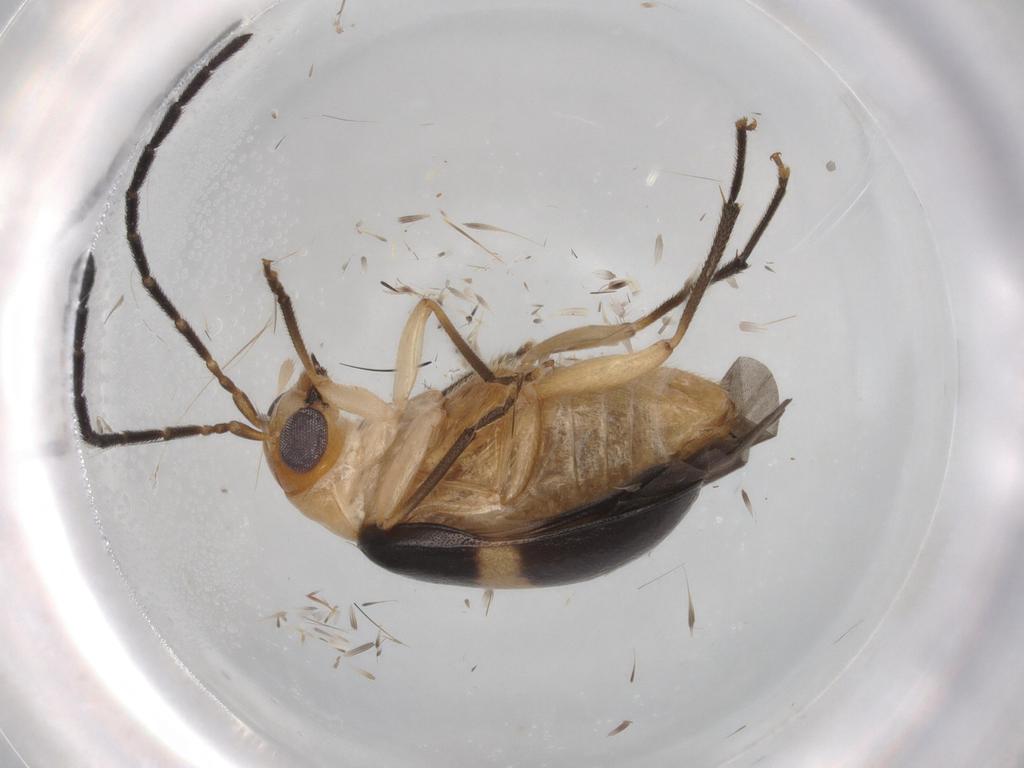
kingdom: Animalia
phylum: Arthropoda
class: Insecta
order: Coleoptera
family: Chrysomelidae
